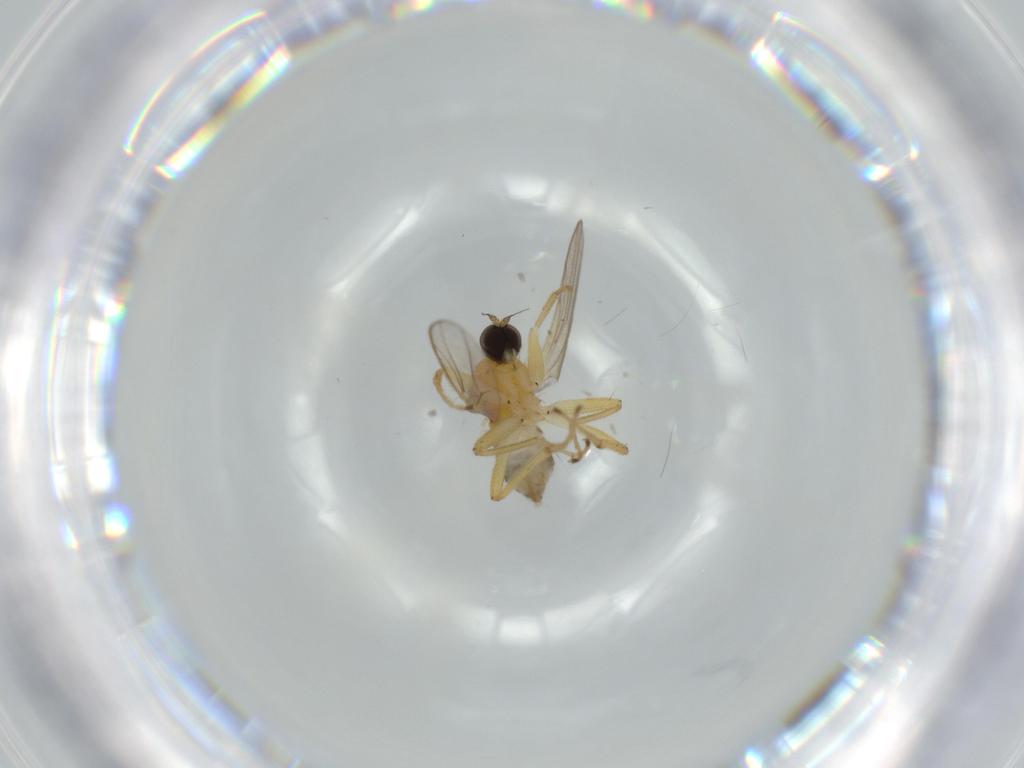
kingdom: Animalia
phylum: Arthropoda
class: Insecta
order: Diptera
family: Hybotidae
